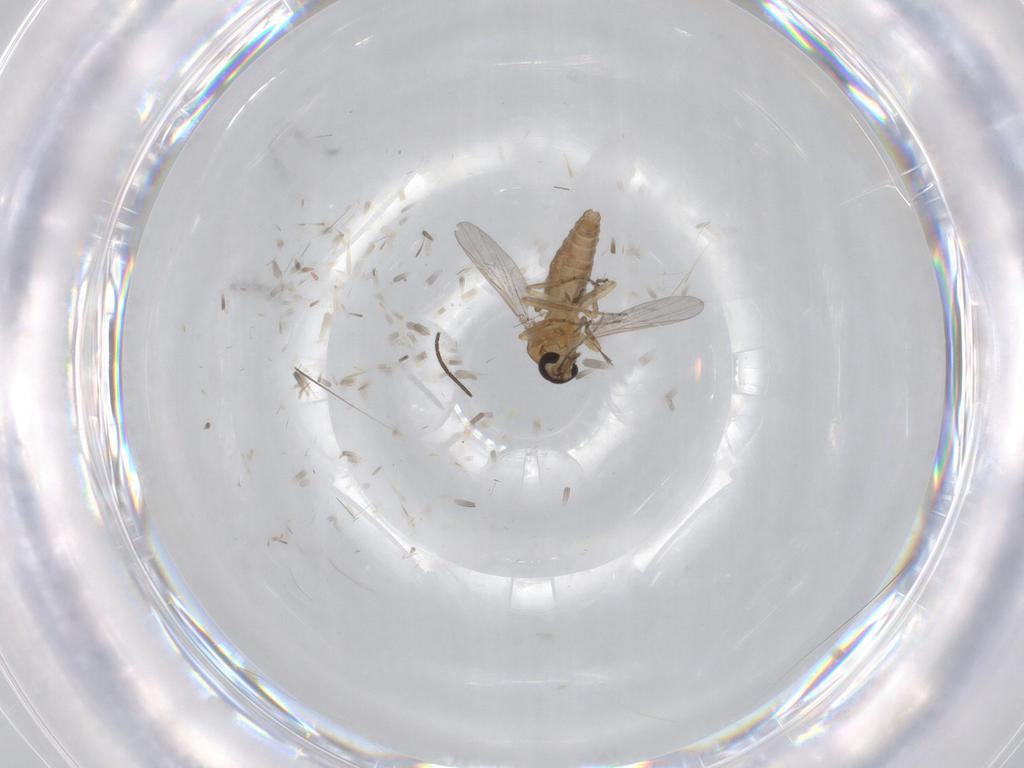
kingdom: Animalia
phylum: Arthropoda
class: Insecta
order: Diptera
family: Ceratopogonidae
